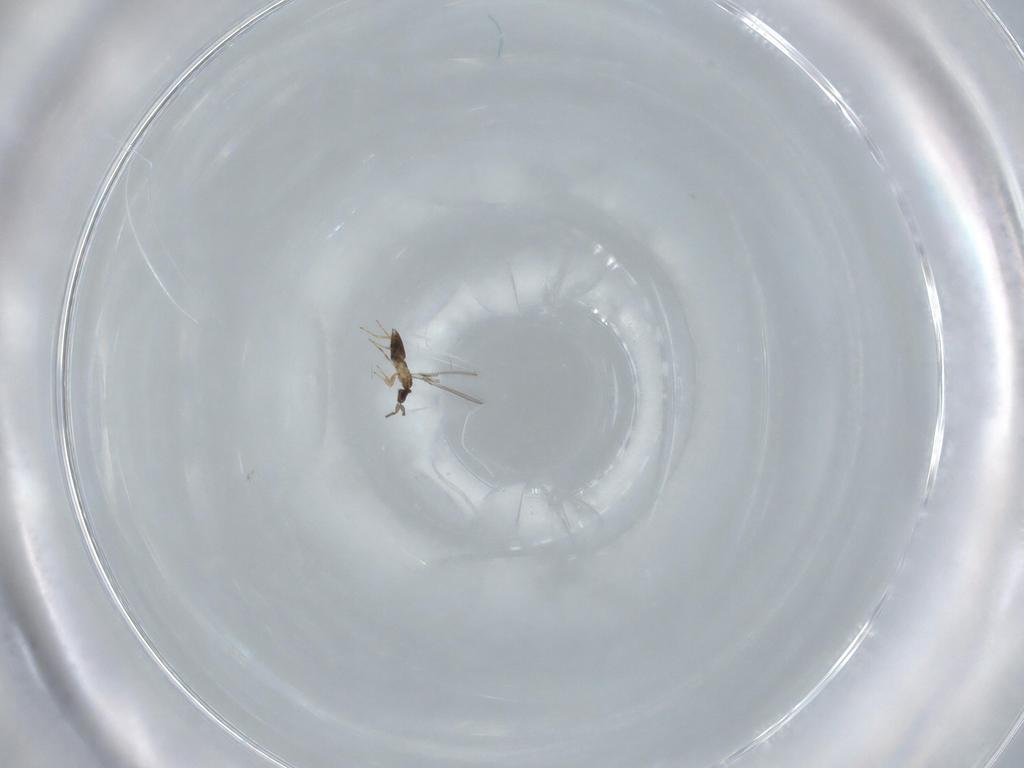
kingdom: Animalia
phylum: Arthropoda
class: Insecta
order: Hymenoptera
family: Mymaridae
